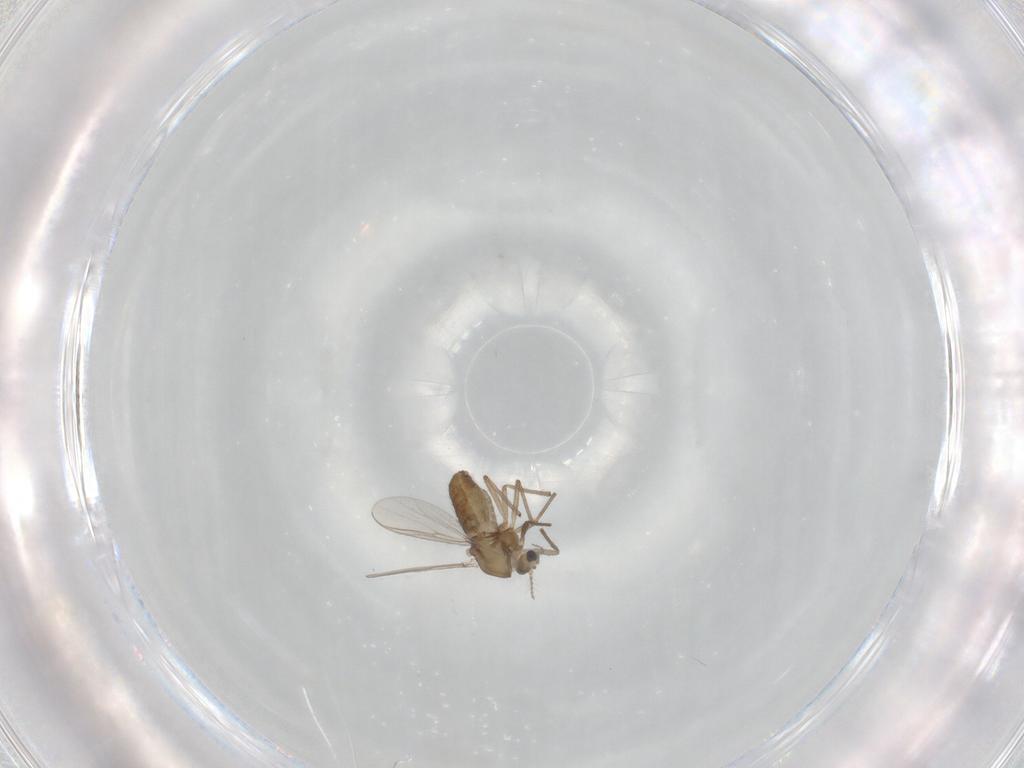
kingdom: Animalia
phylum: Arthropoda
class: Insecta
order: Diptera
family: Chironomidae
